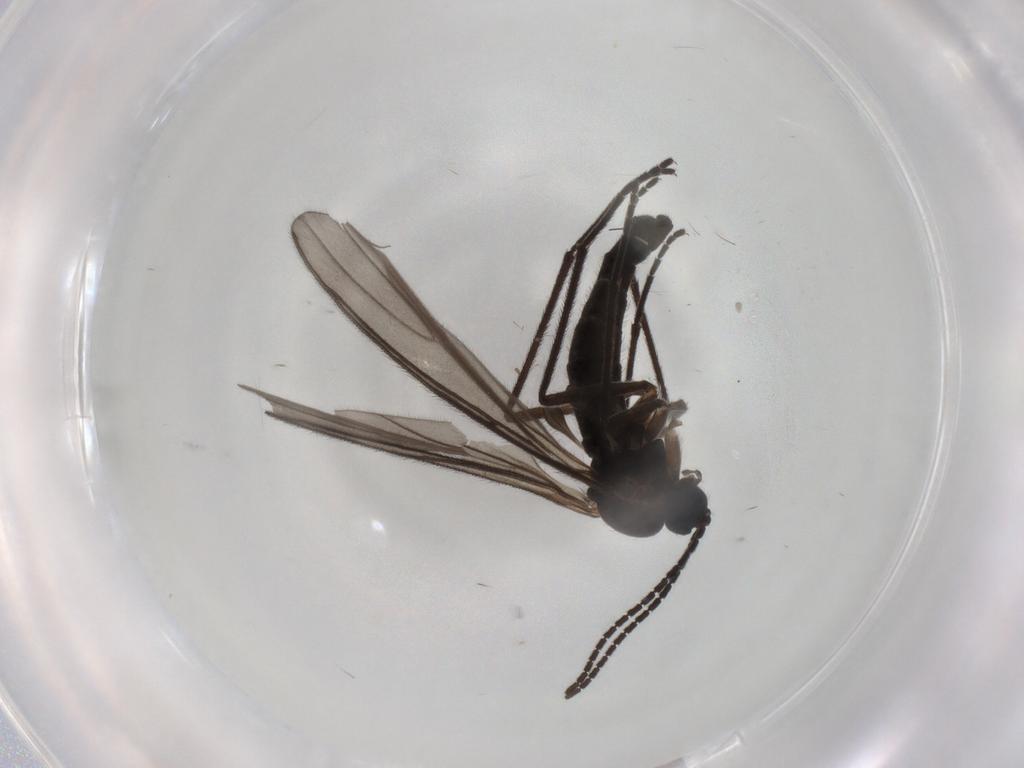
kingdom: Animalia
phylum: Arthropoda
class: Insecta
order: Diptera
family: Sciaridae
